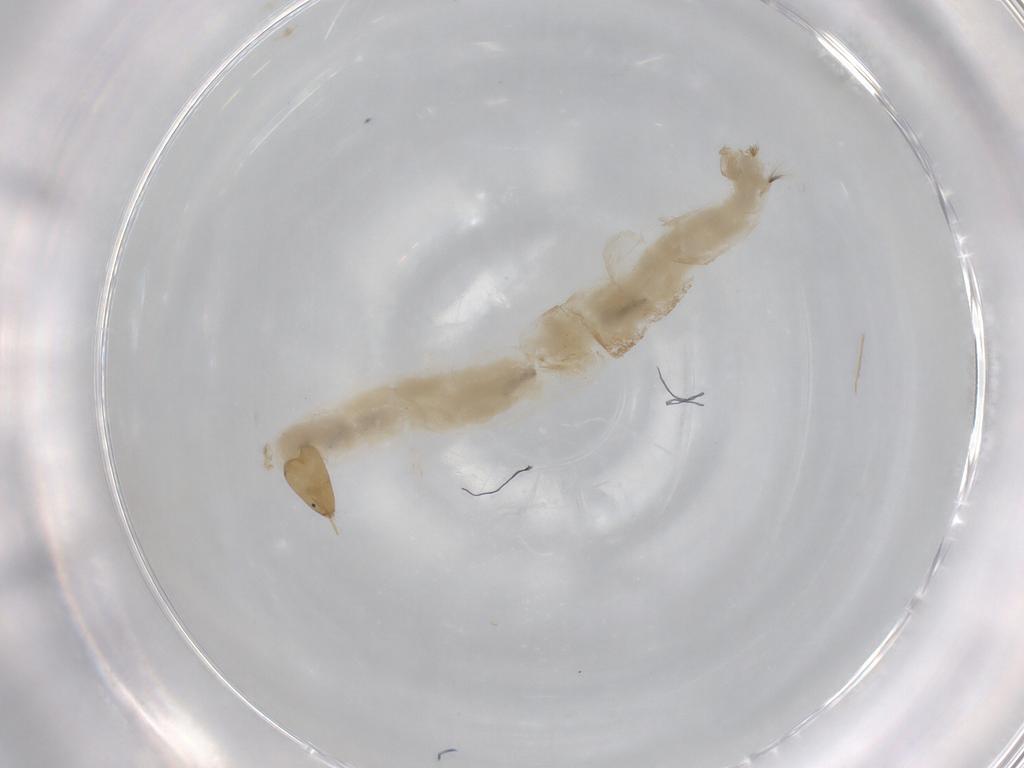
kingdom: Animalia
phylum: Arthropoda
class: Insecta
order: Diptera
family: Chironomidae
